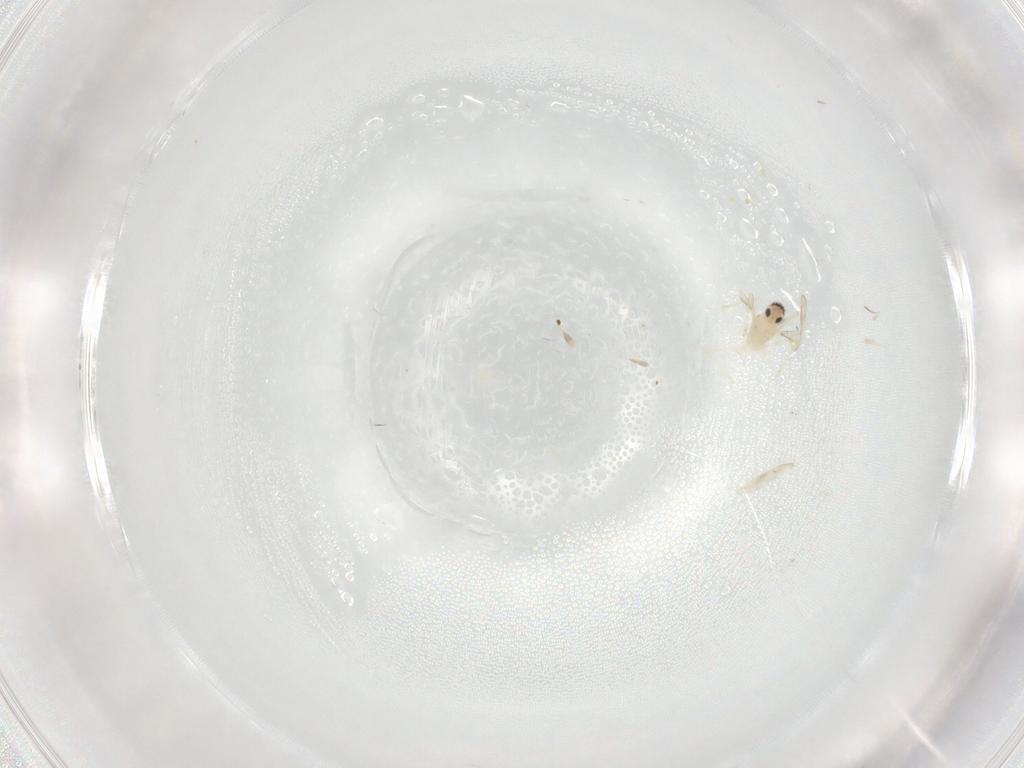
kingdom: Animalia
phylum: Arthropoda
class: Insecta
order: Diptera
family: Cecidomyiidae
